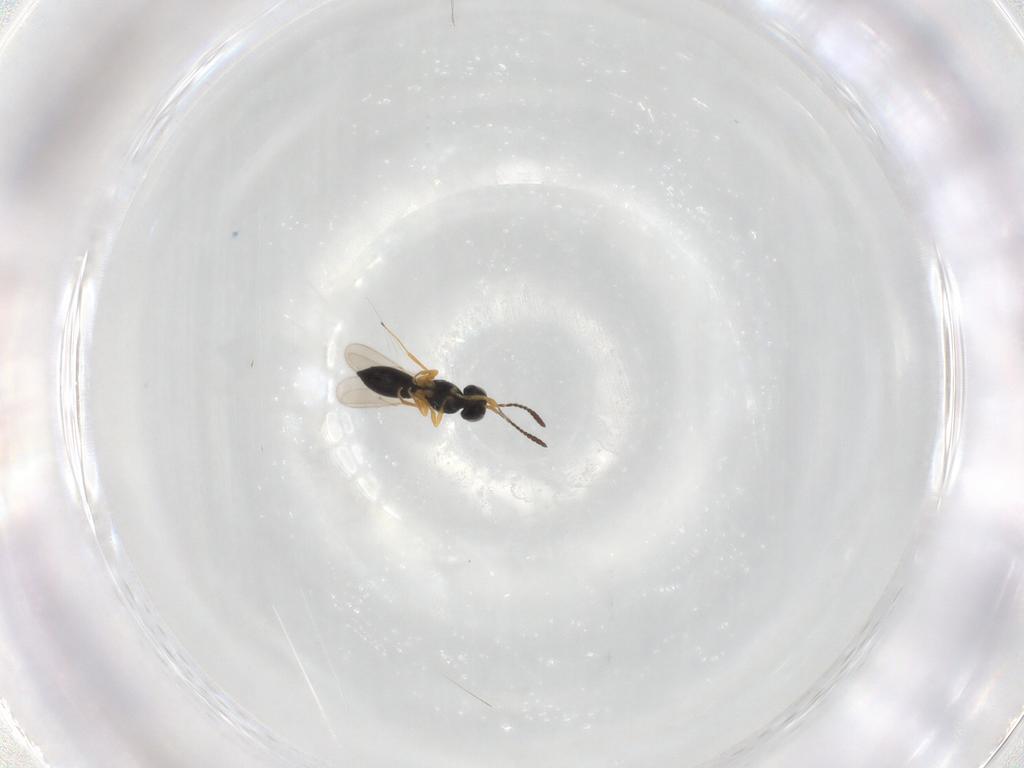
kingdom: Animalia
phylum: Arthropoda
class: Insecta
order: Hymenoptera
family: Scelionidae
